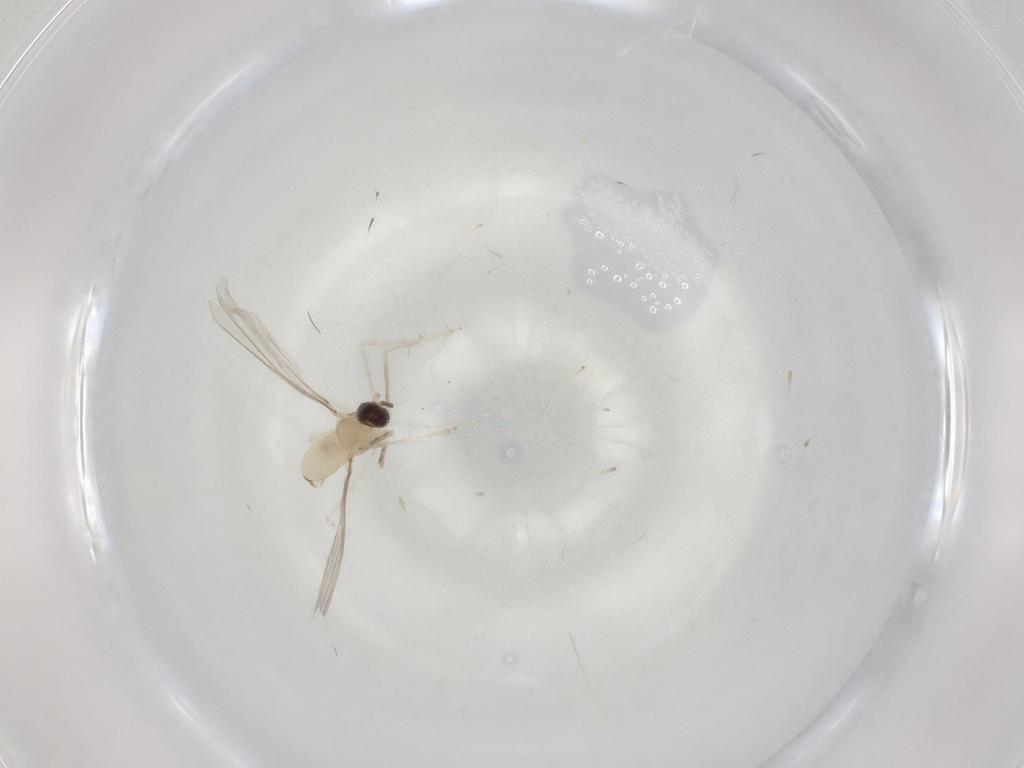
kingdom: Animalia
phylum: Arthropoda
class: Insecta
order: Diptera
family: Cecidomyiidae
